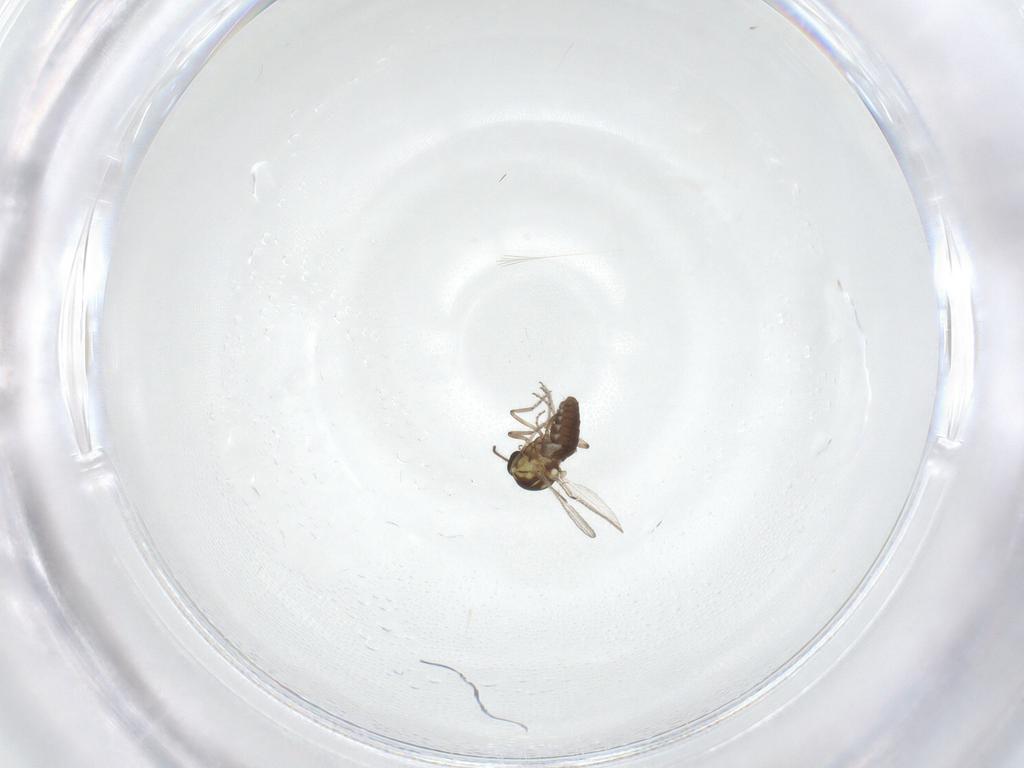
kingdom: Animalia
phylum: Arthropoda
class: Insecta
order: Diptera
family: Ceratopogonidae
